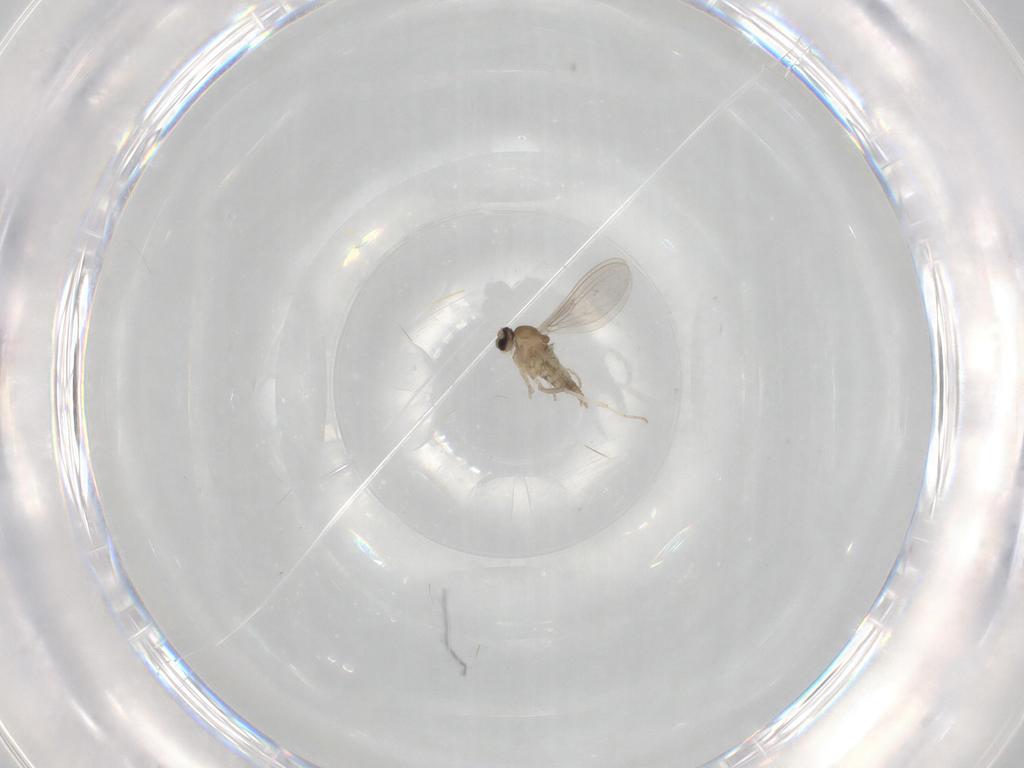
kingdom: Animalia
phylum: Arthropoda
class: Insecta
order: Diptera
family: Cecidomyiidae
